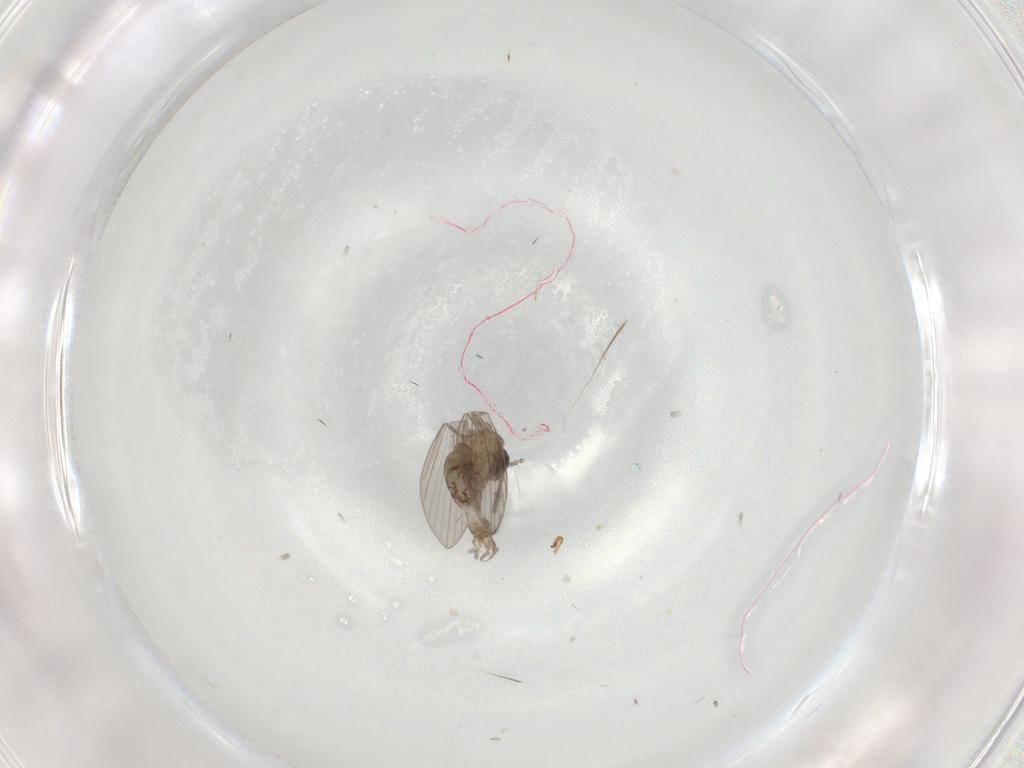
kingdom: Animalia
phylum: Arthropoda
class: Insecta
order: Diptera
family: Psychodidae
